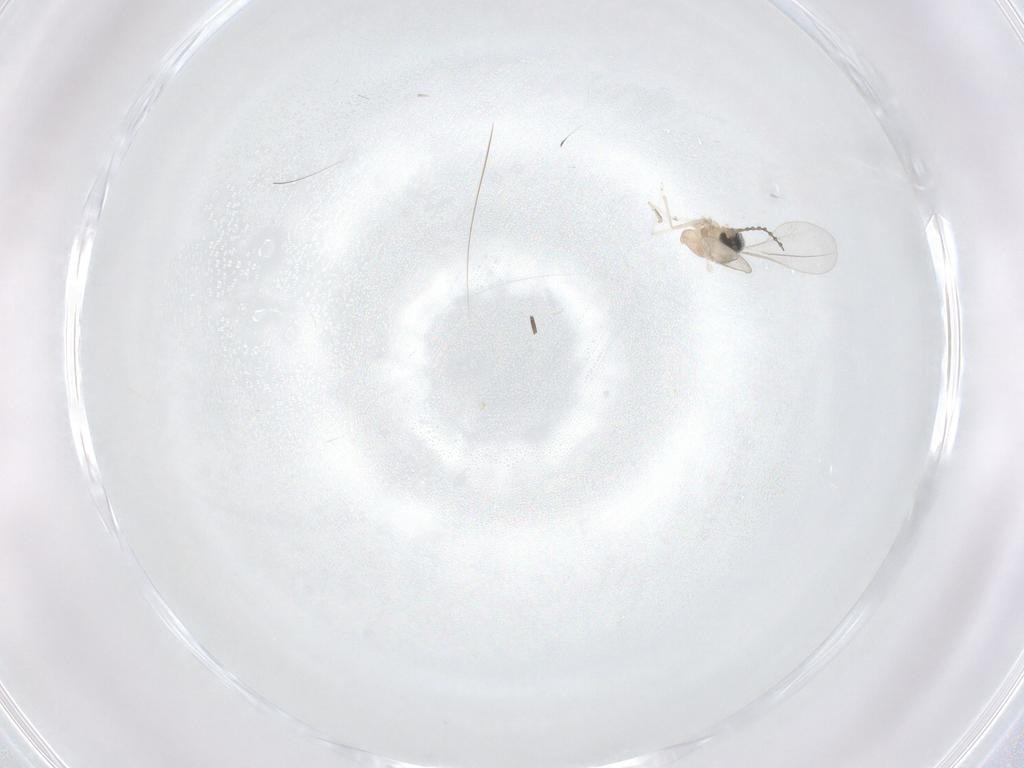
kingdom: Animalia
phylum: Arthropoda
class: Insecta
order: Diptera
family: Cecidomyiidae
